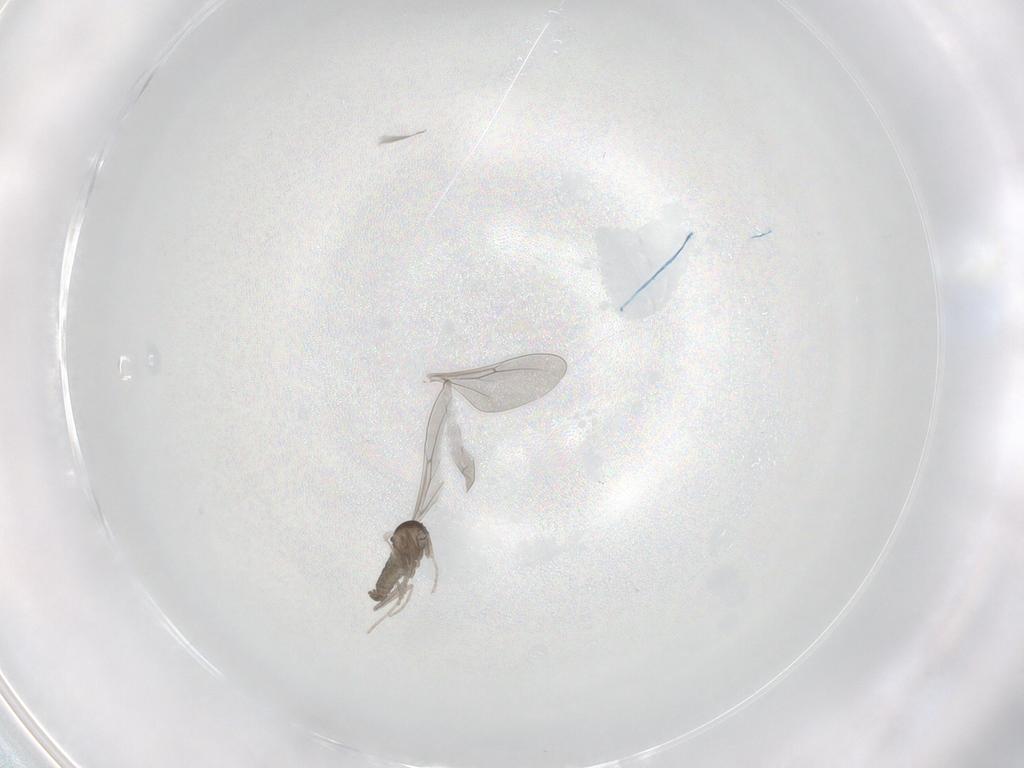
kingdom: Animalia
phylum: Arthropoda
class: Insecta
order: Diptera
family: Cecidomyiidae
